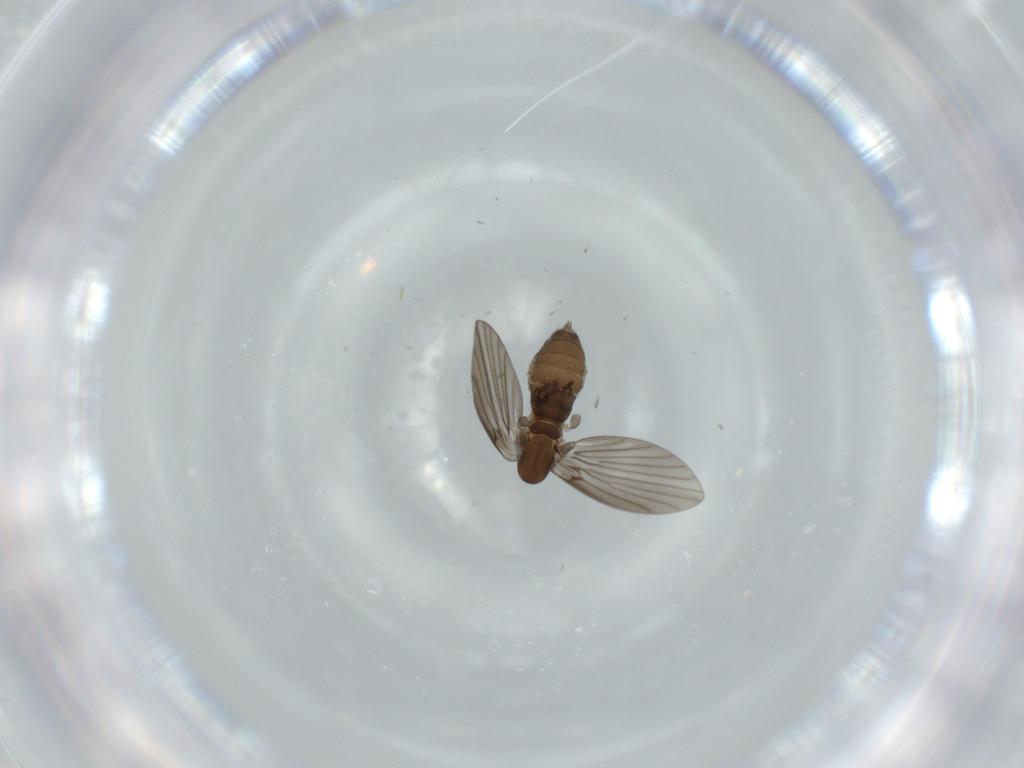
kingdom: Animalia
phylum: Arthropoda
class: Insecta
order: Diptera
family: Psychodidae
